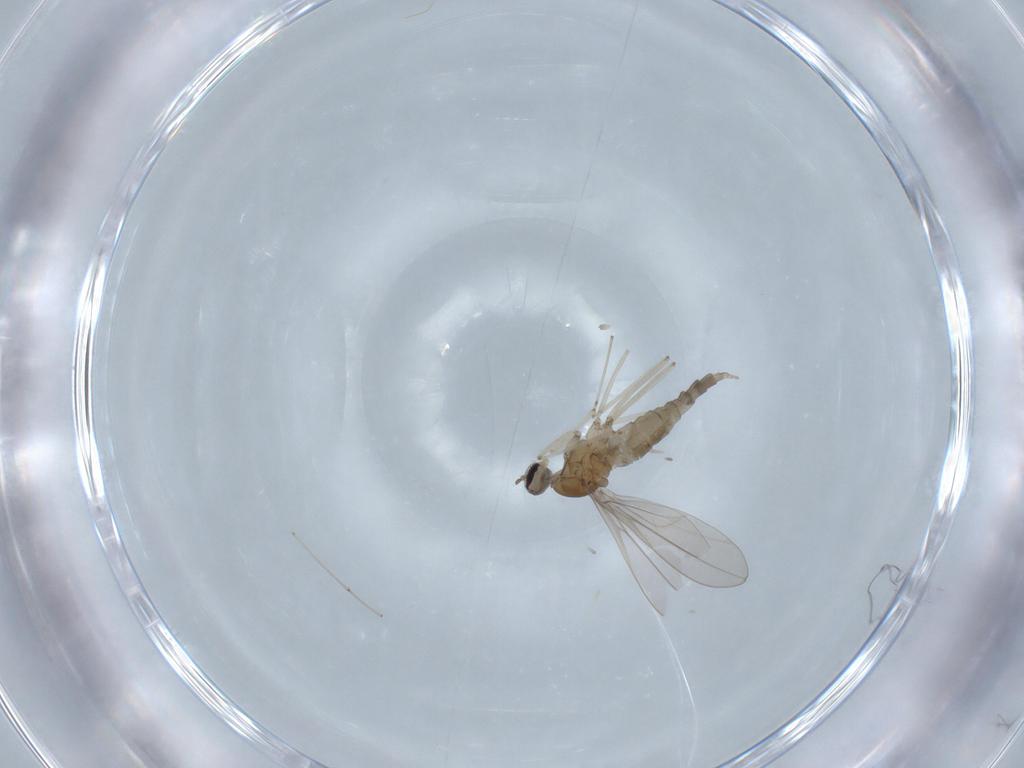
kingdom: Animalia
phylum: Arthropoda
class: Insecta
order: Diptera
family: Cecidomyiidae
